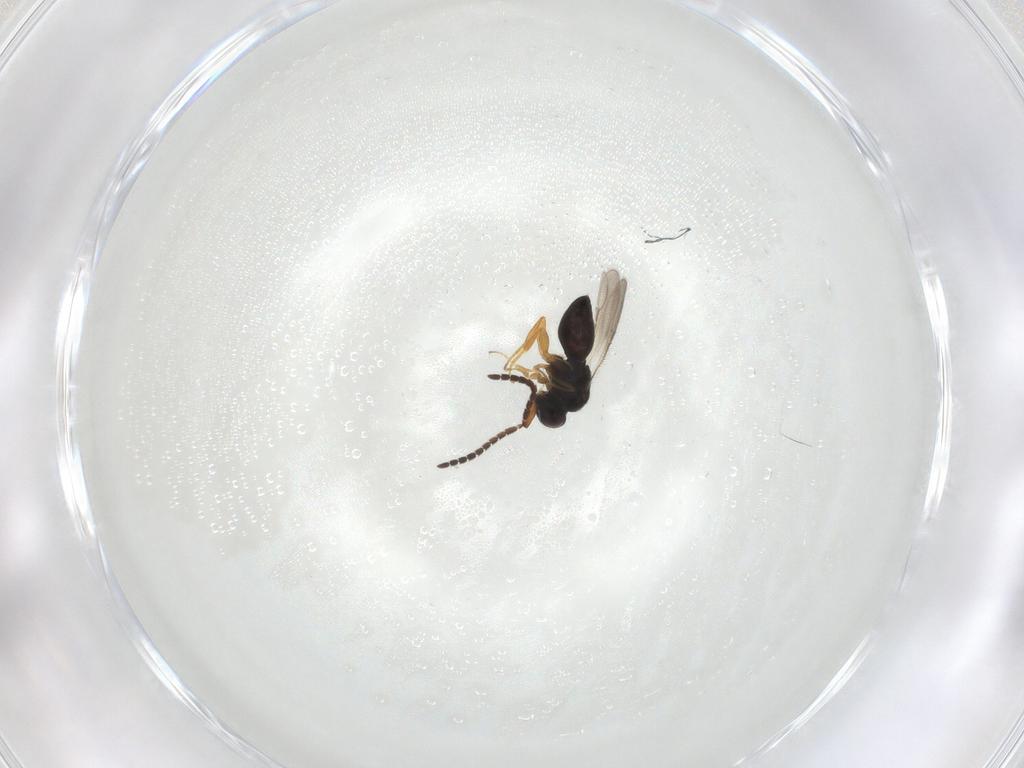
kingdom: Animalia
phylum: Arthropoda
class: Insecta
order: Hymenoptera
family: Ceraphronidae
